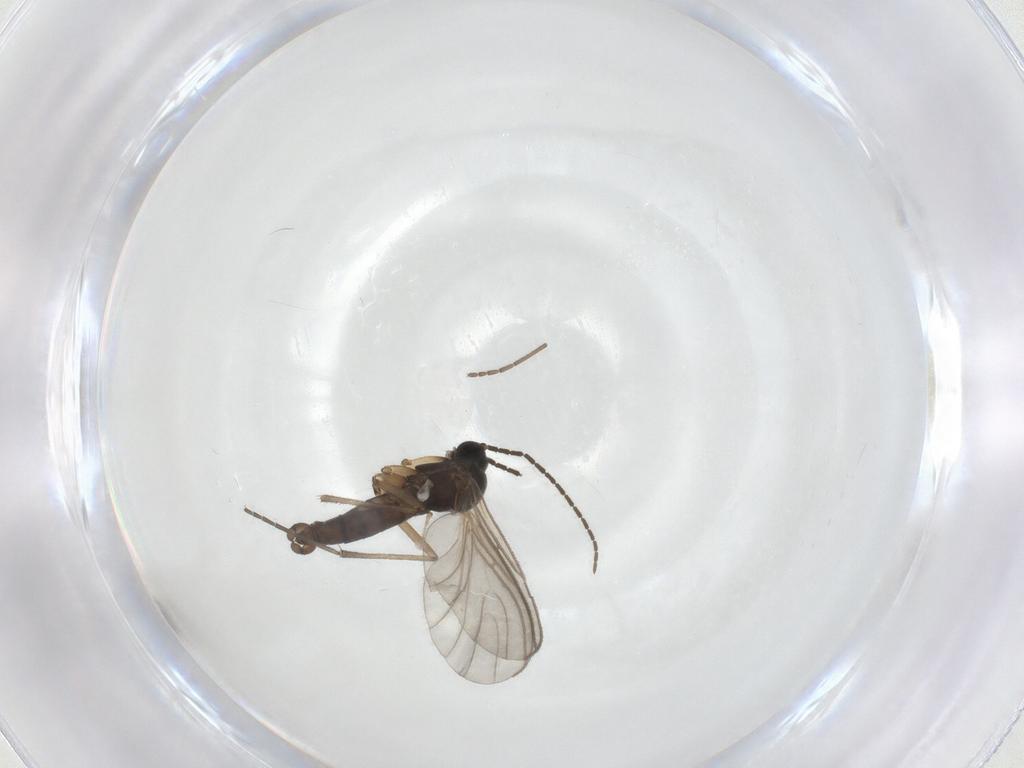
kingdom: Animalia
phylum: Arthropoda
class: Insecta
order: Diptera
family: Sciaridae
